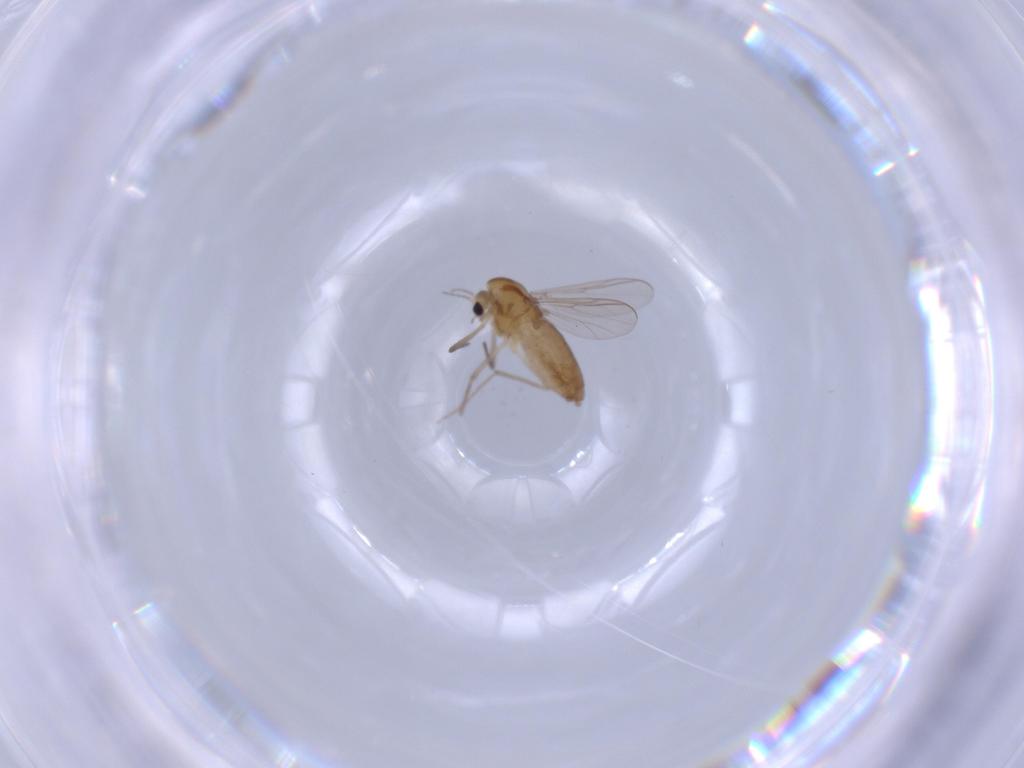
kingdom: Animalia
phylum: Arthropoda
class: Insecta
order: Diptera
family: Chironomidae
